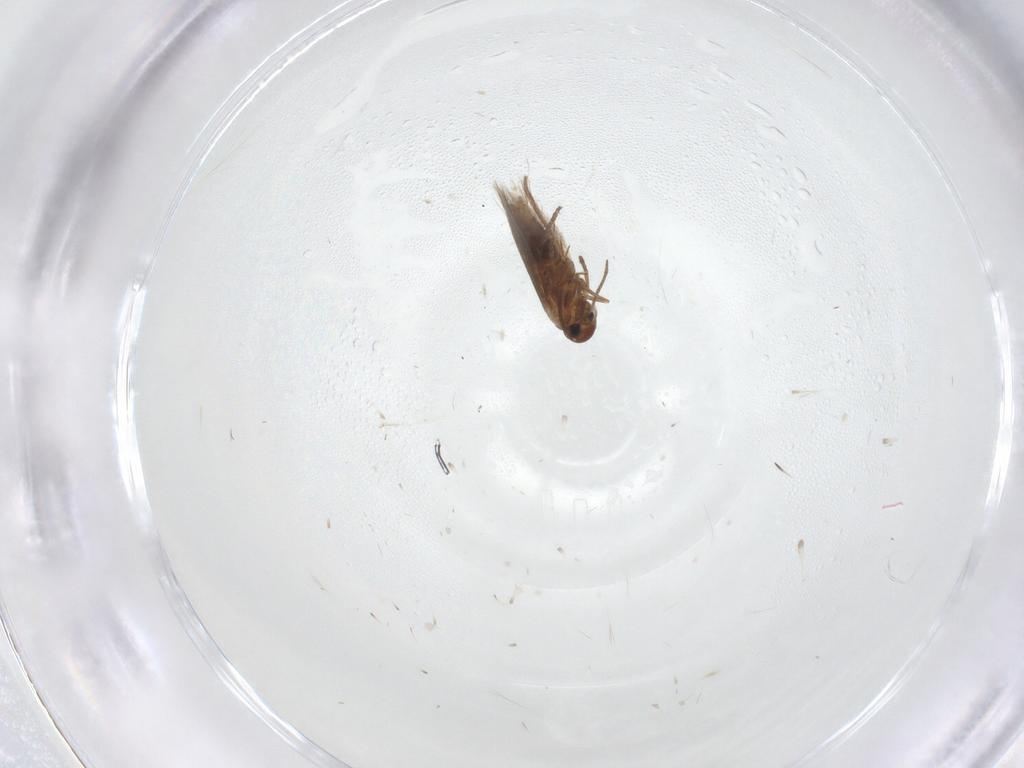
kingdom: Animalia
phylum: Arthropoda
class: Insecta
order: Lepidoptera
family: Heliozelidae
